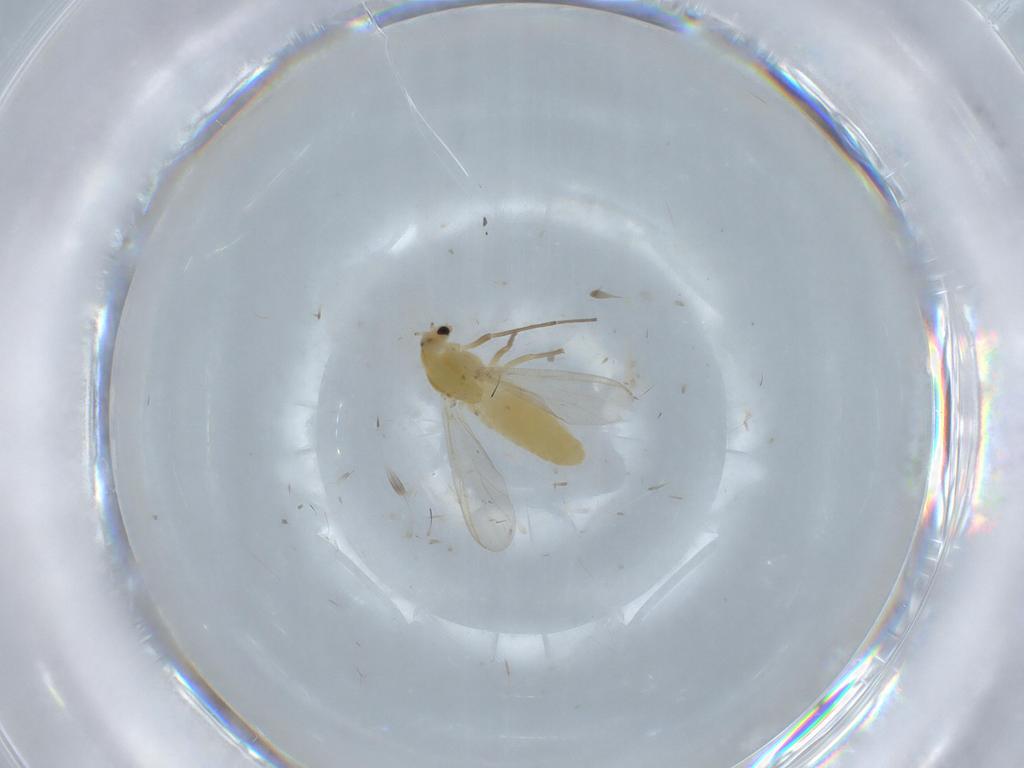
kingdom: Animalia
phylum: Arthropoda
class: Insecta
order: Diptera
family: Chironomidae
